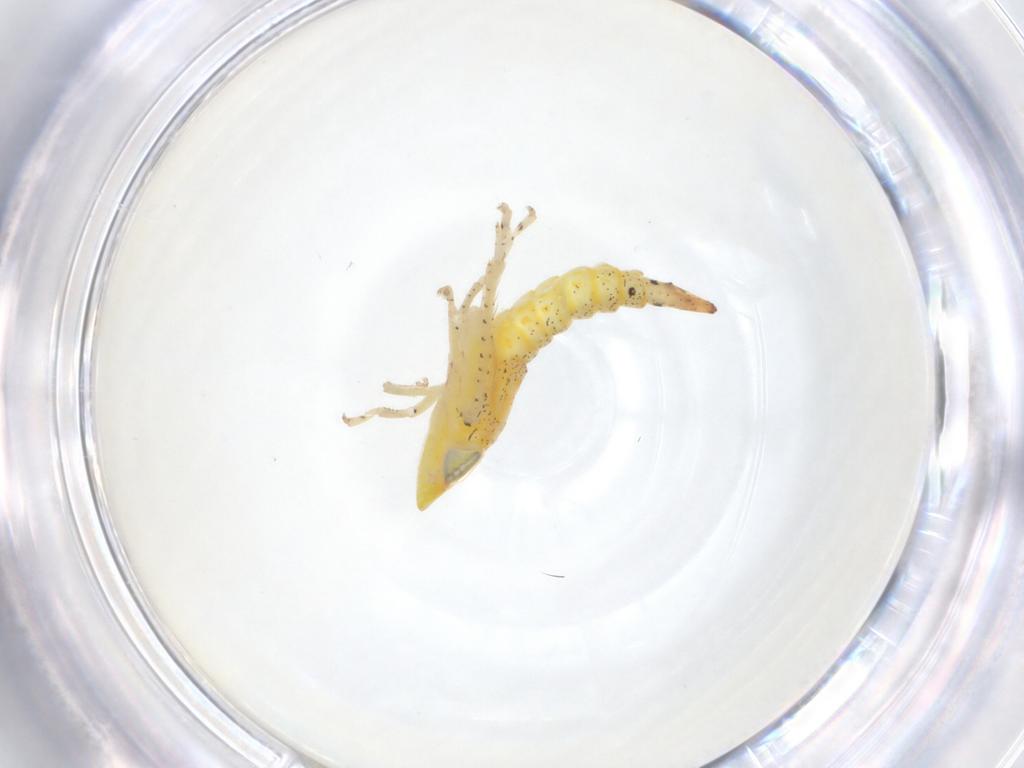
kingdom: Animalia
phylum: Arthropoda
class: Insecta
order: Hemiptera
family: Cicadellidae
